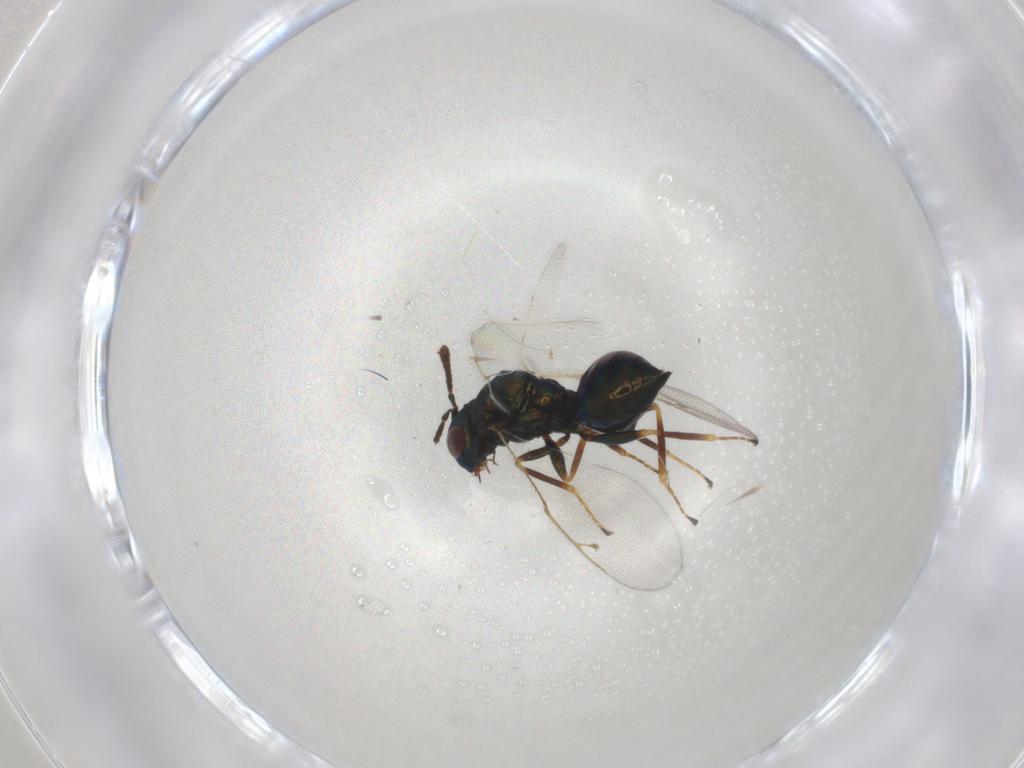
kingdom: Animalia
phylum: Arthropoda
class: Insecta
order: Hymenoptera
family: Pteromalidae
